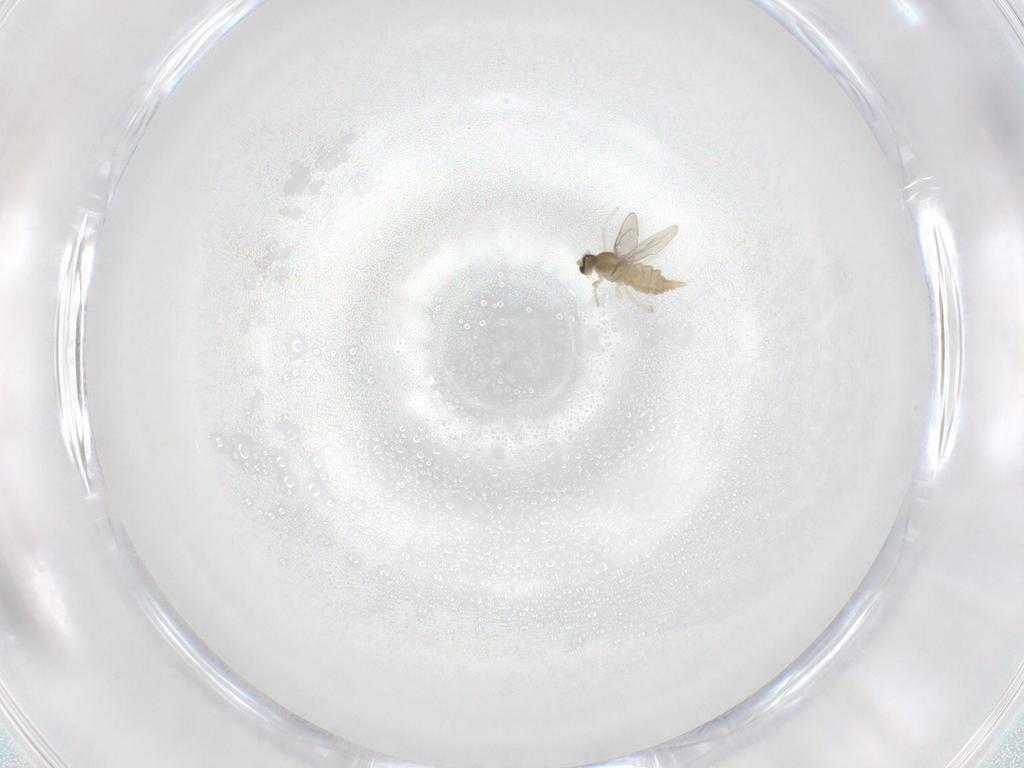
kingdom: Animalia
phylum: Arthropoda
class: Insecta
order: Diptera
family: Cecidomyiidae
